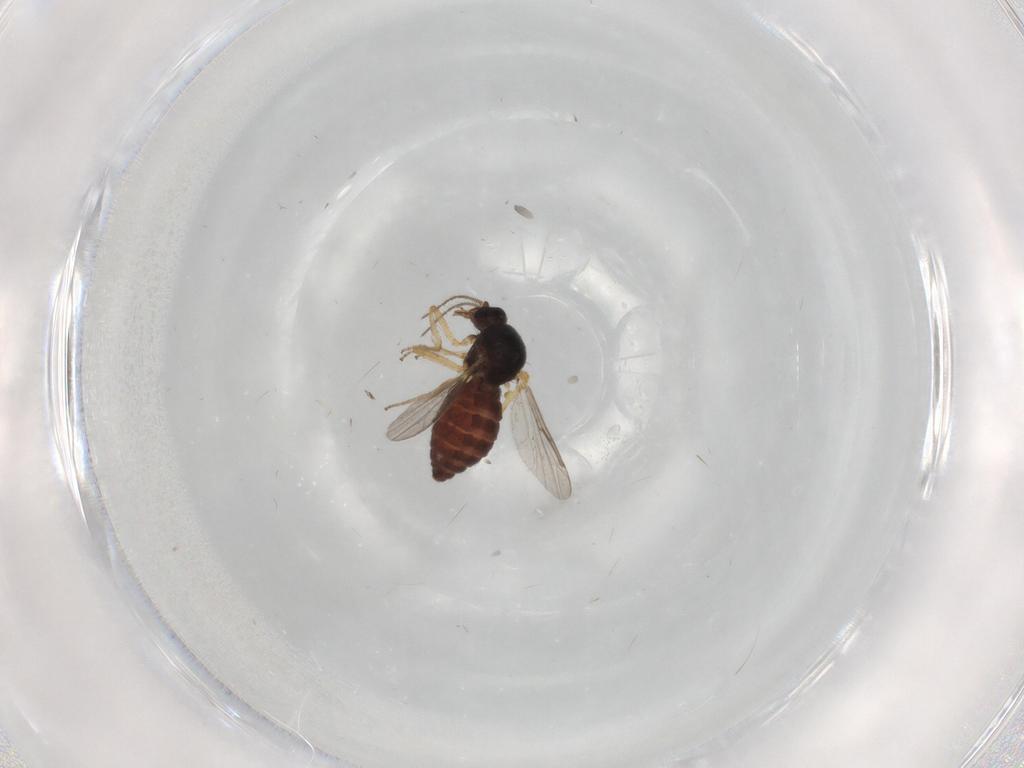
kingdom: Animalia
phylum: Arthropoda
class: Insecta
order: Diptera
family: Ceratopogonidae
